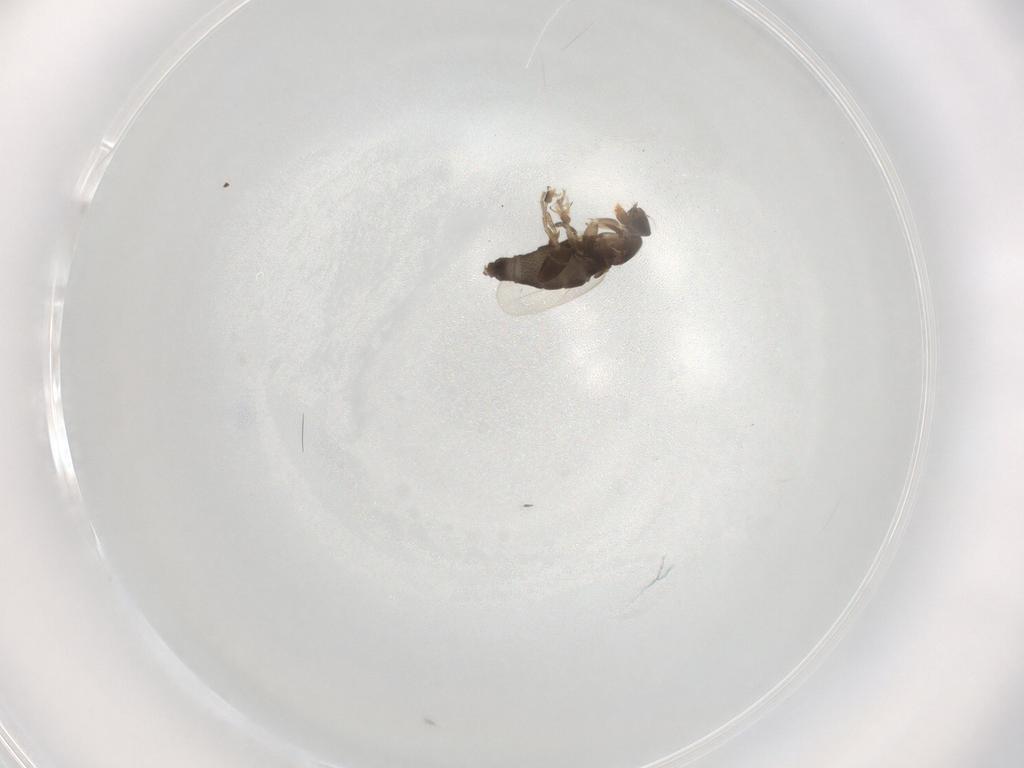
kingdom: Animalia
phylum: Arthropoda
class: Insecta
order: Diptera
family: Phoridae
